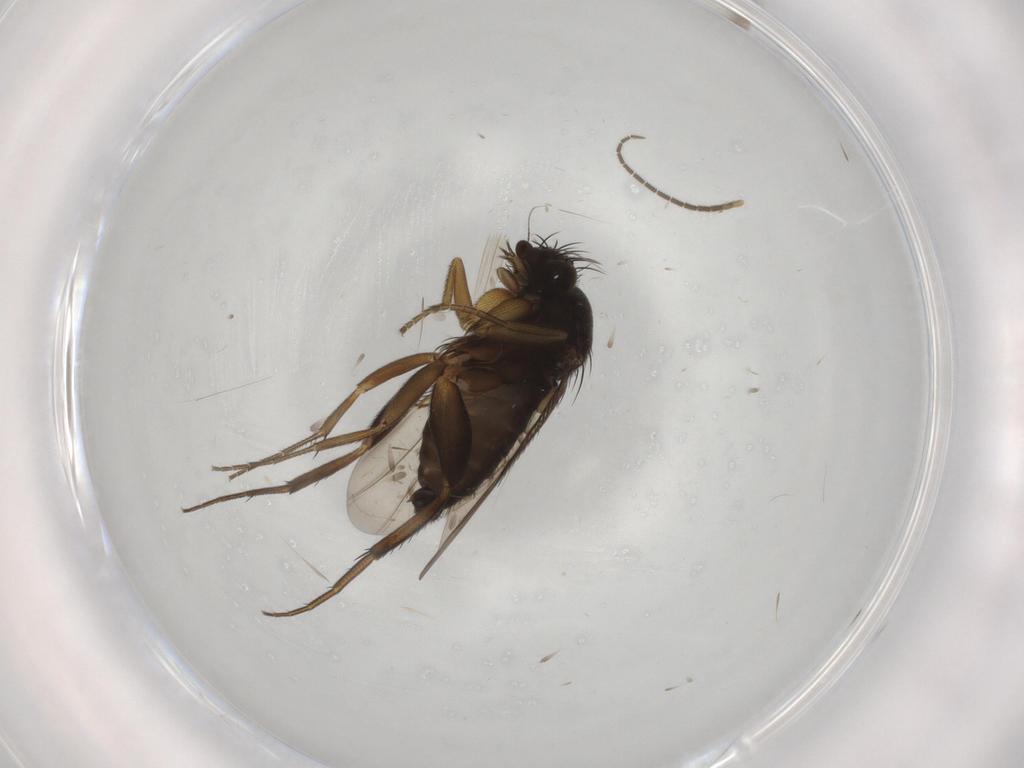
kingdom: Animalia
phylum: Arthropoda
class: Insecta
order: Diptera
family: Phoridae
